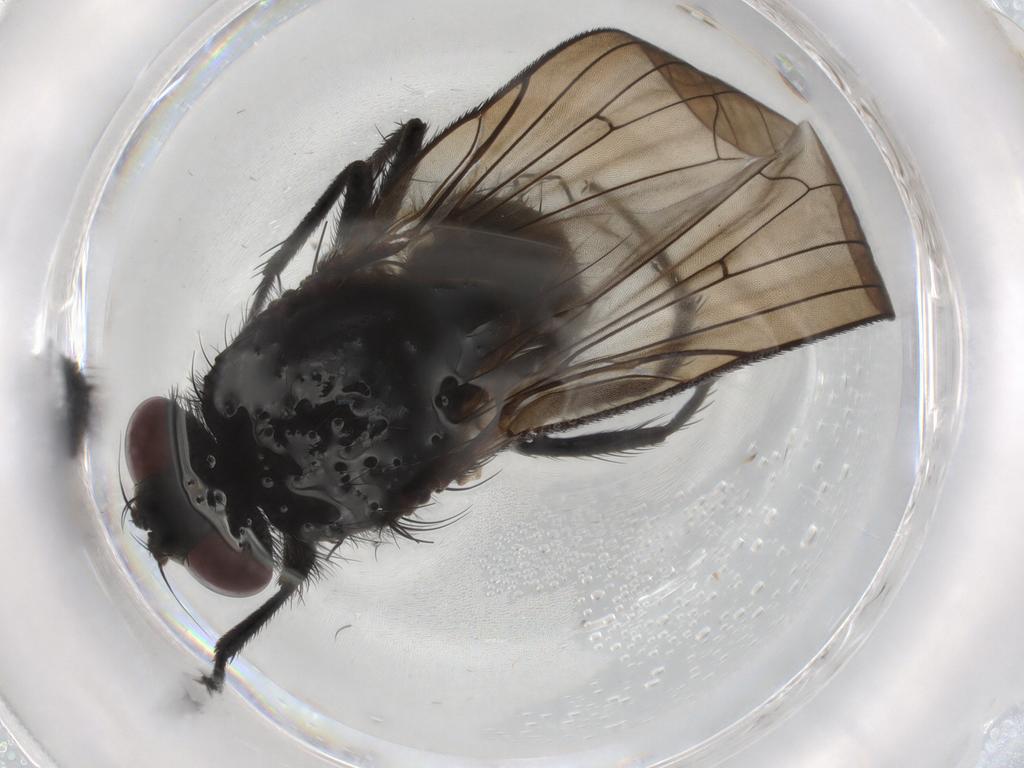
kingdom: Animalia
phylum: Arthropoda
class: Insecta
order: Diptera
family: Anthomyiidae
